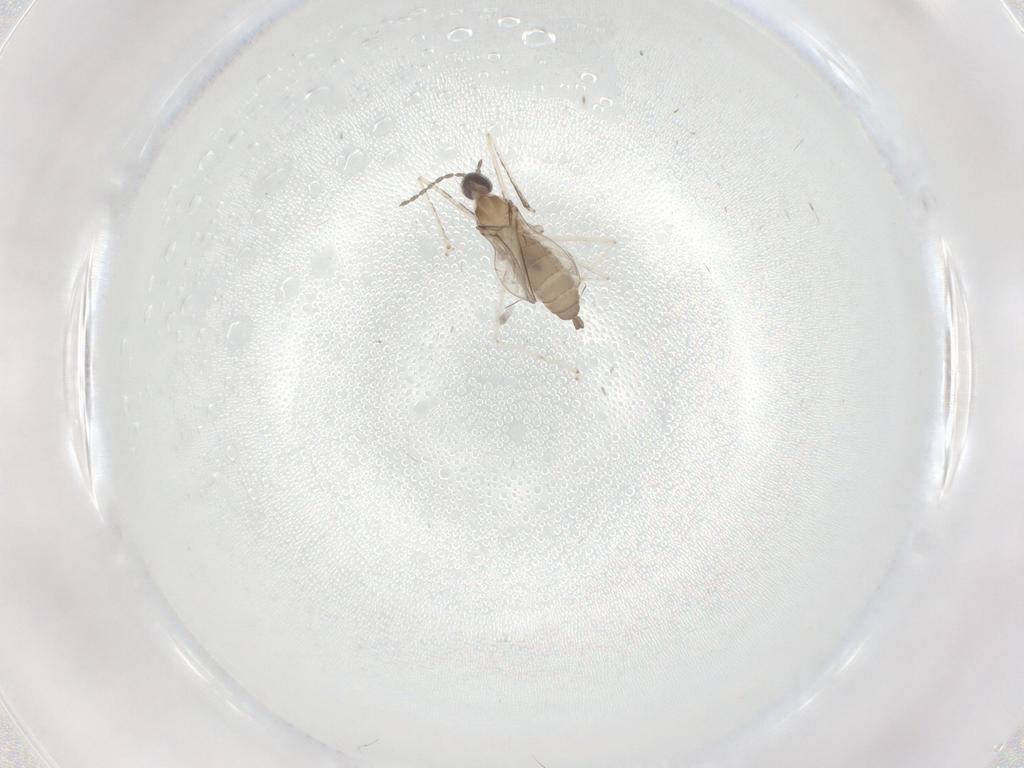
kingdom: Animalia
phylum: Arthropoda
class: Insecta
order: Diptera
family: Cecidomyiidae
